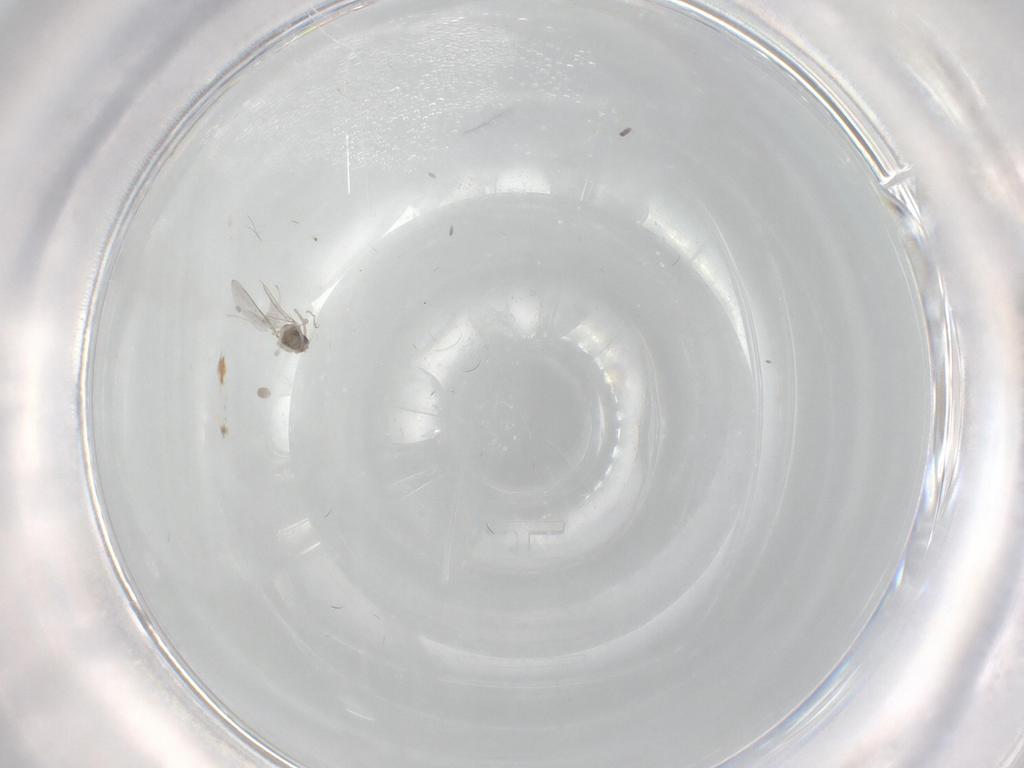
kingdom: Animalia
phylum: Arthropoda
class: Insecta
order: Diptera
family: Cecidomyiidae
